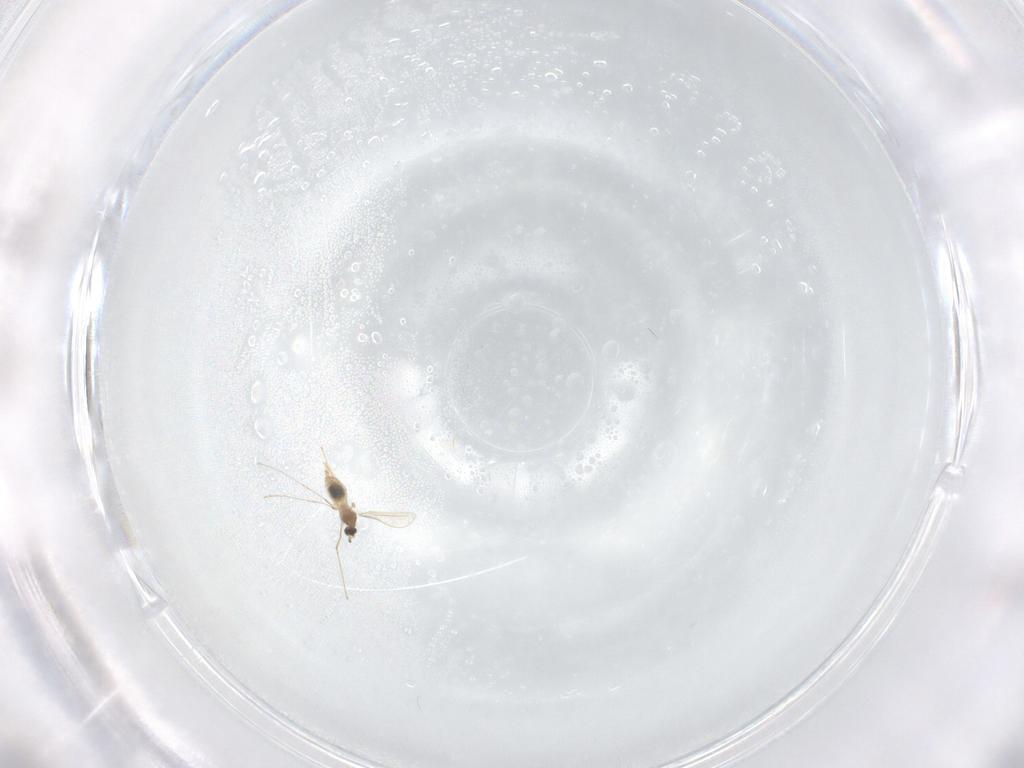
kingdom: Animalia
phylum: Arthropoda
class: Insecta
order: Diptera
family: Cecidomyiidae
